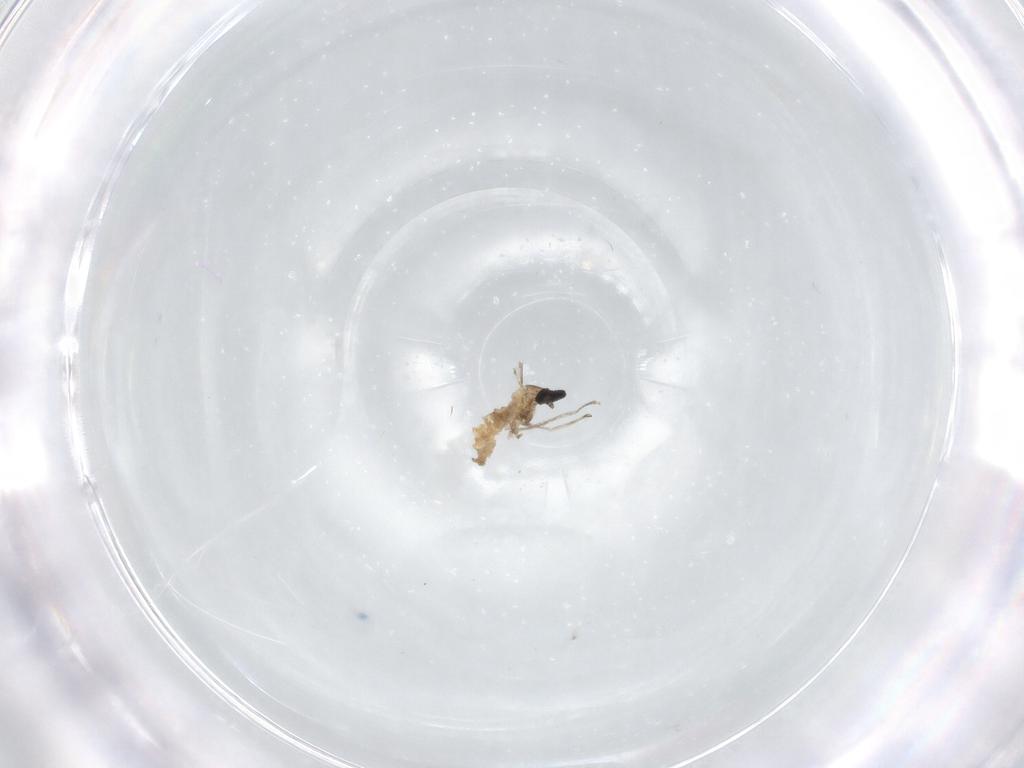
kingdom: Animalia
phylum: Arthropoda
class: Insecta
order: Diptera
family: Cecidomyiidae
